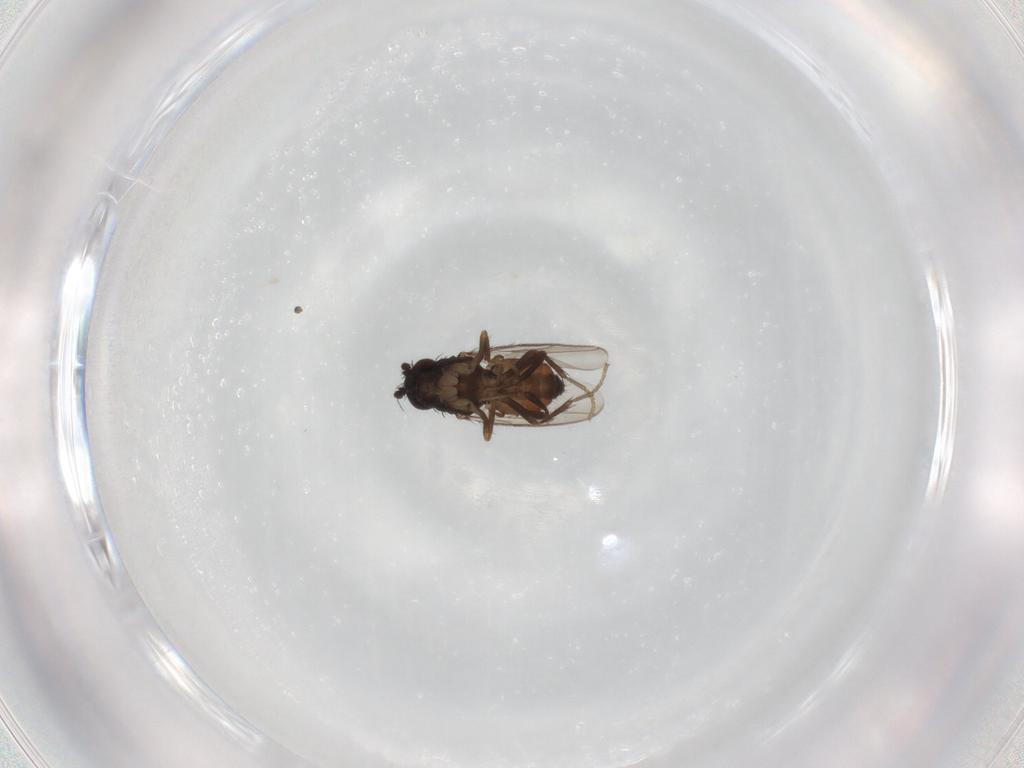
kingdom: Animalia
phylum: Arthropoda
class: Insecta
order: Diptera
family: Sphaeroceridae
